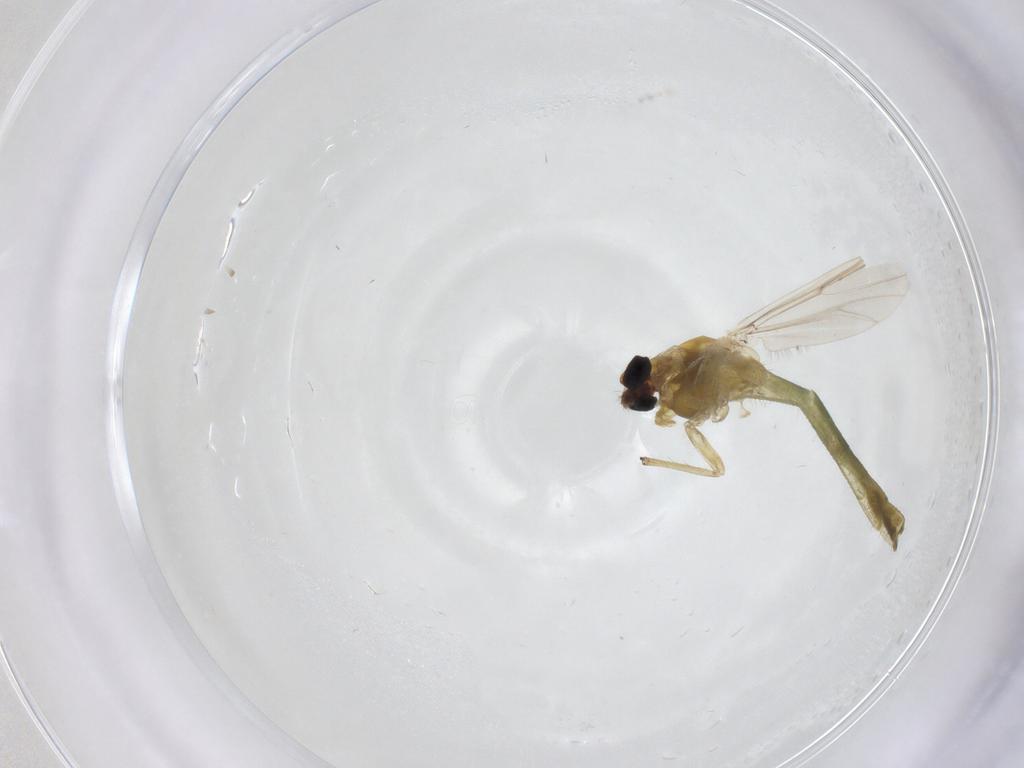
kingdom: Animalia
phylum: Arthropoda
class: Insecta
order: Diptera
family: Chironomidae
